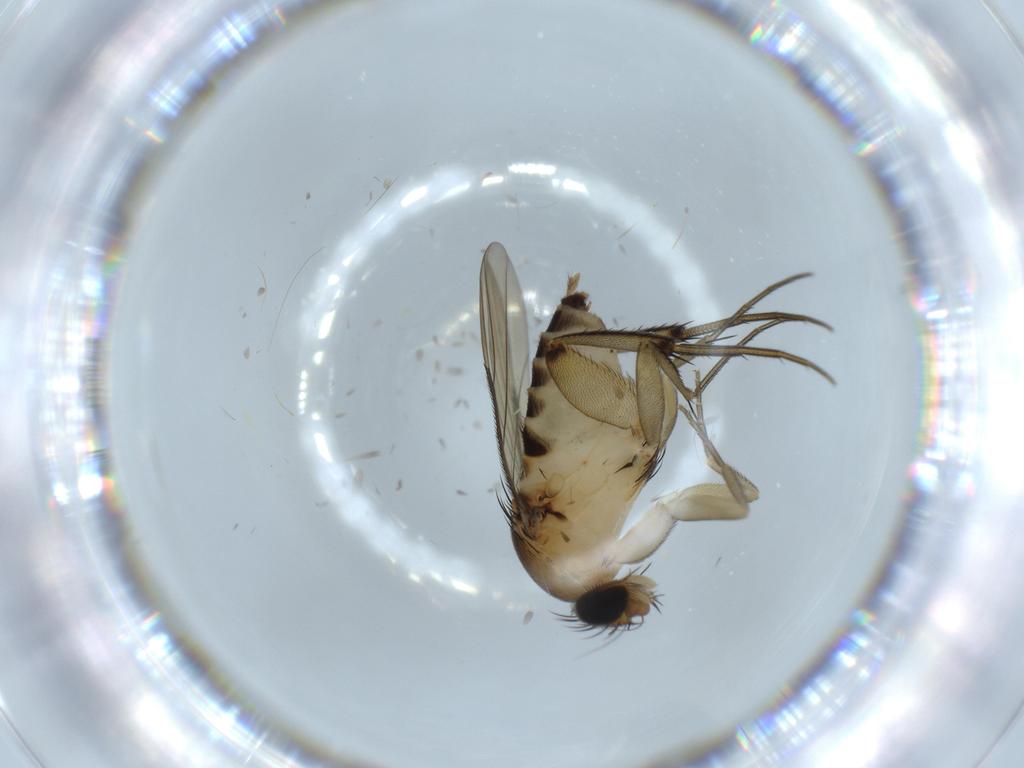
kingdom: Animalia
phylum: Arthropoda
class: Insecta
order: Diptera
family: Phoridae
